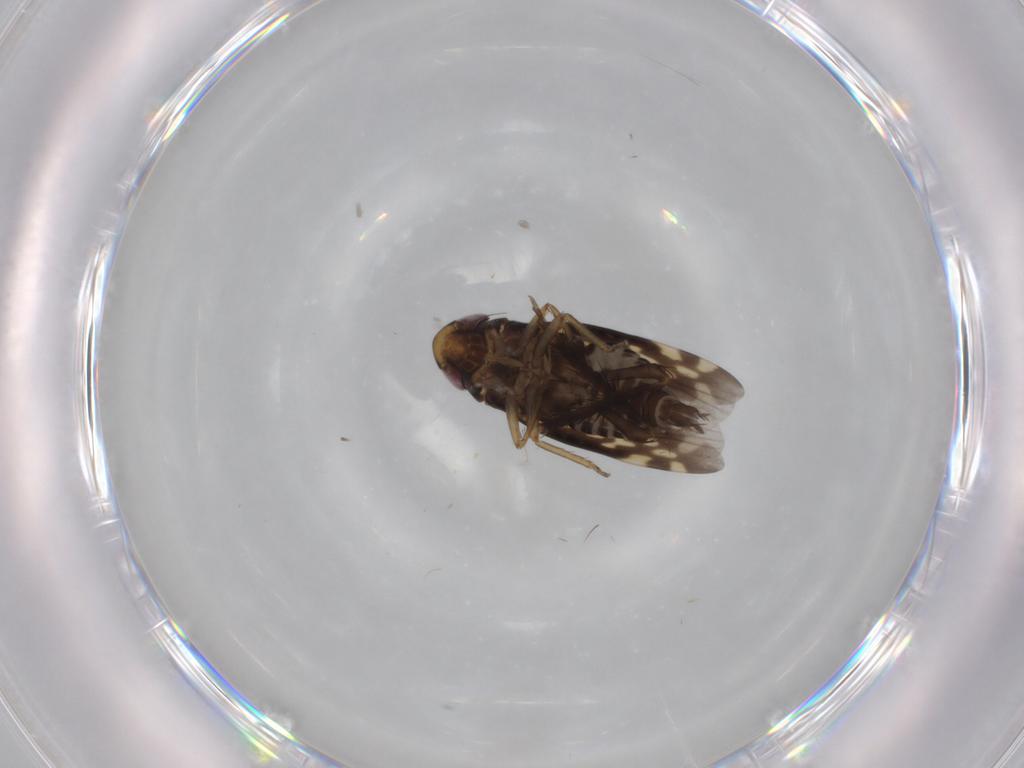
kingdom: Animalia
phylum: Arthropoda
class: Insecta
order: Hemiptera
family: Cicadellidae
